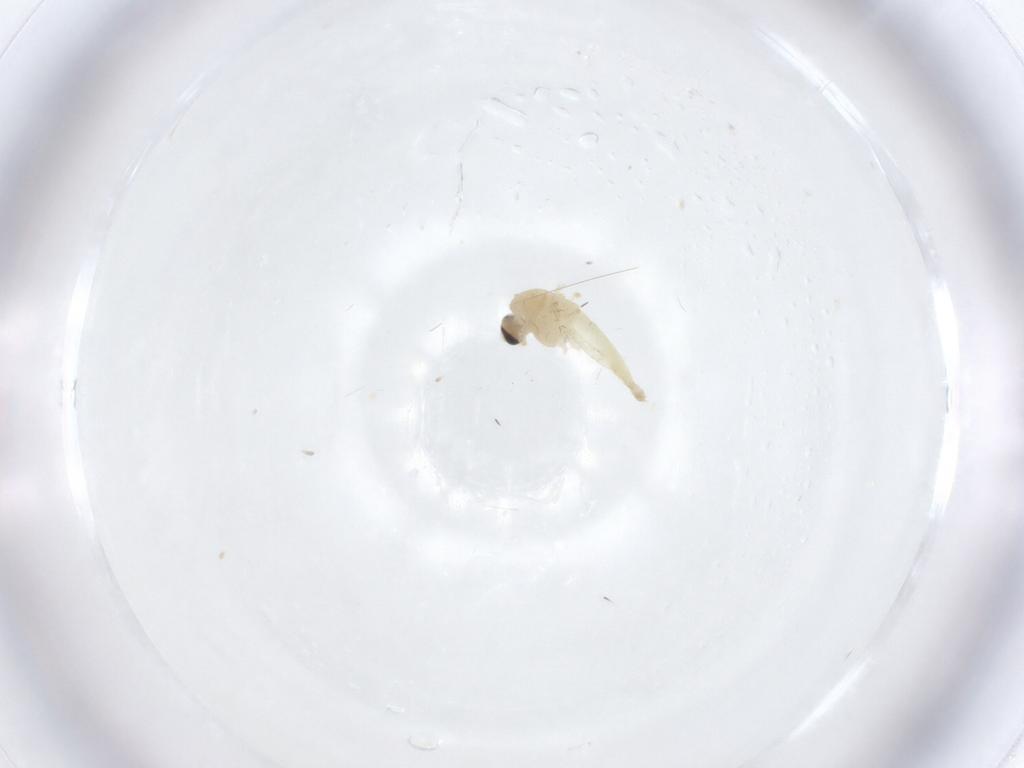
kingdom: Animalia
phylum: Arthropoda
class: Insecta
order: Diptera
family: Chironomidae
